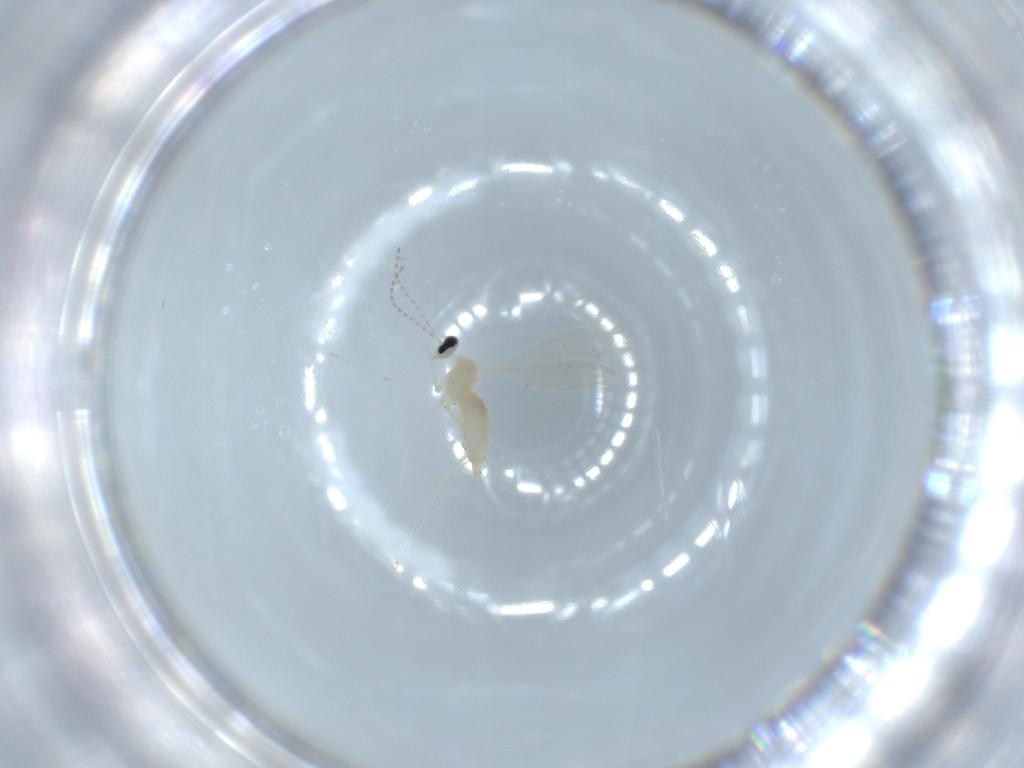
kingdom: Animalia
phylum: Arthropoda
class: Insecta
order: Diptera
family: Cecidomyiidae
